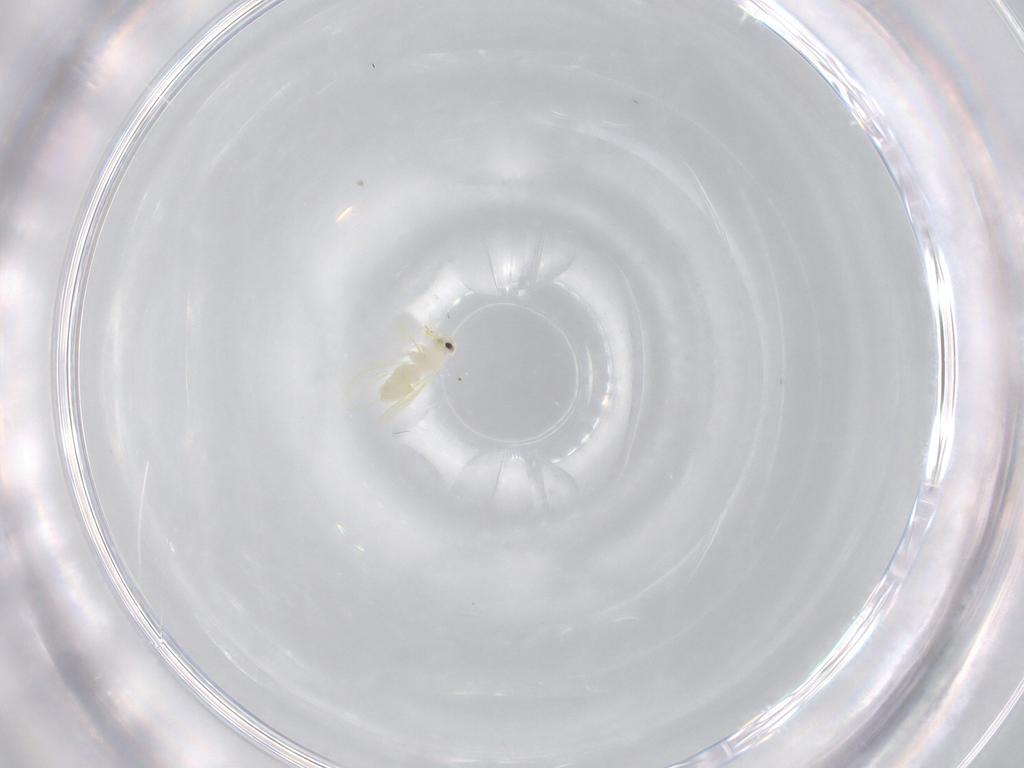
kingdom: Animalia
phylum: Arthropoda
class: Insecta
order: Hemiptera
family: Aleyrodidae
